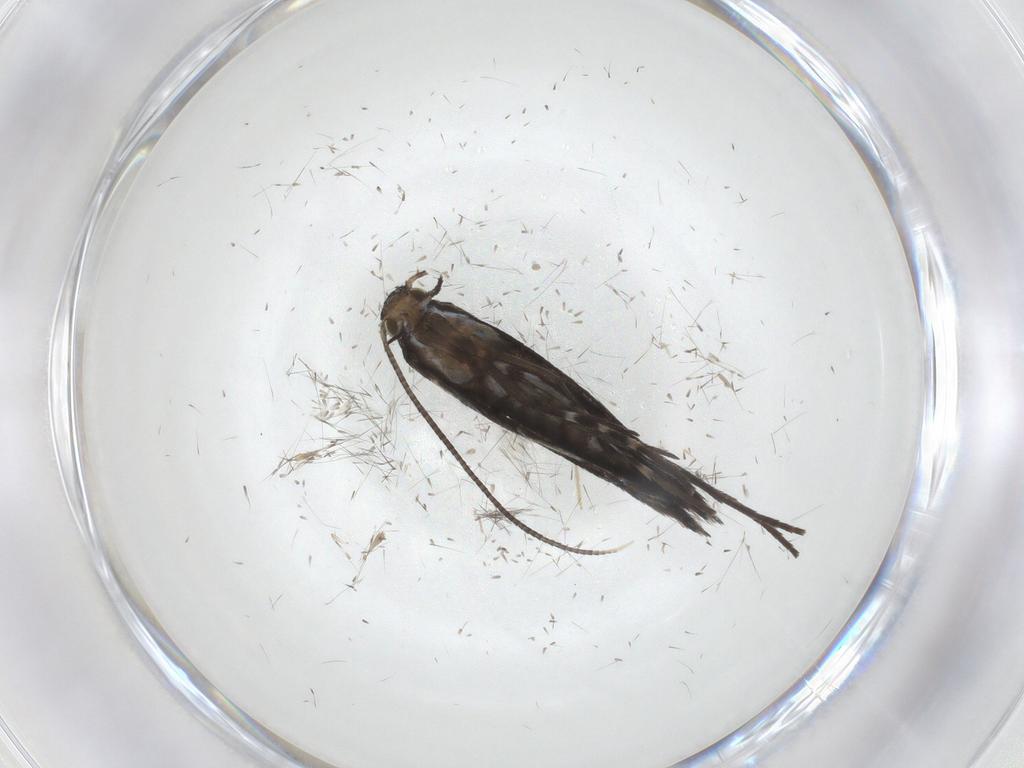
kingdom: Animalia
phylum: Arthropoda
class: Insecta
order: Lepidoptera
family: Gracillariidae
